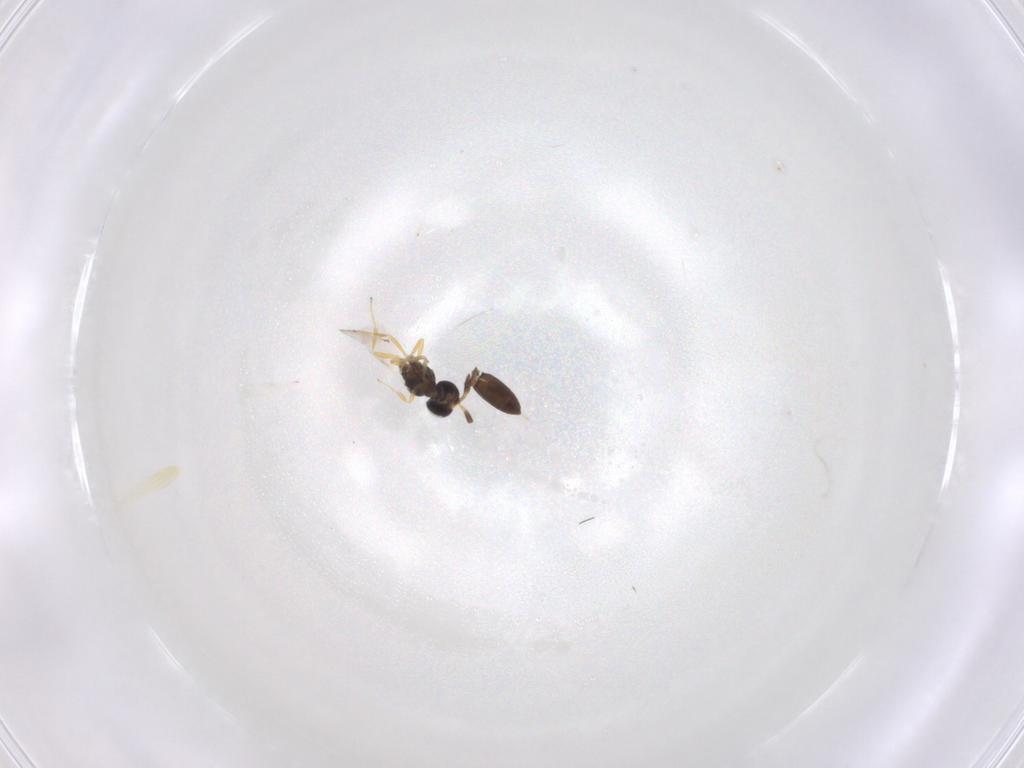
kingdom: Animalia
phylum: Arthropoda
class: Insecta
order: Hymenoptera
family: Scelionidae
